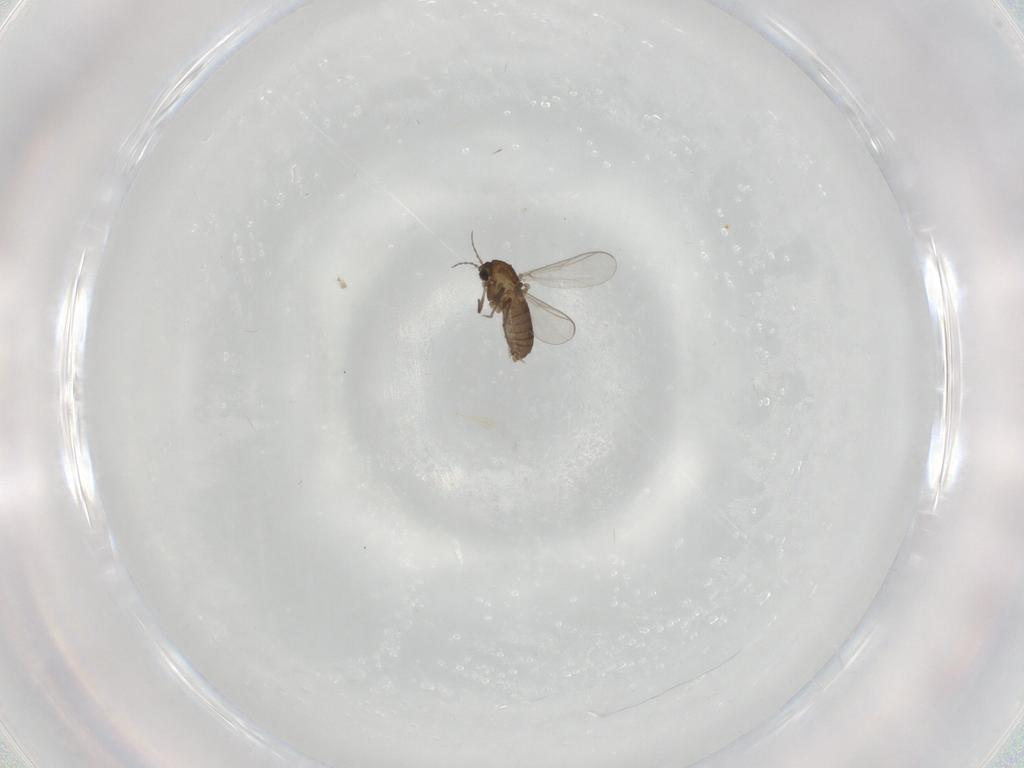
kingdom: Animalia
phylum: Arthropoda
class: Insecta
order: Diptera
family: Chironomidae
